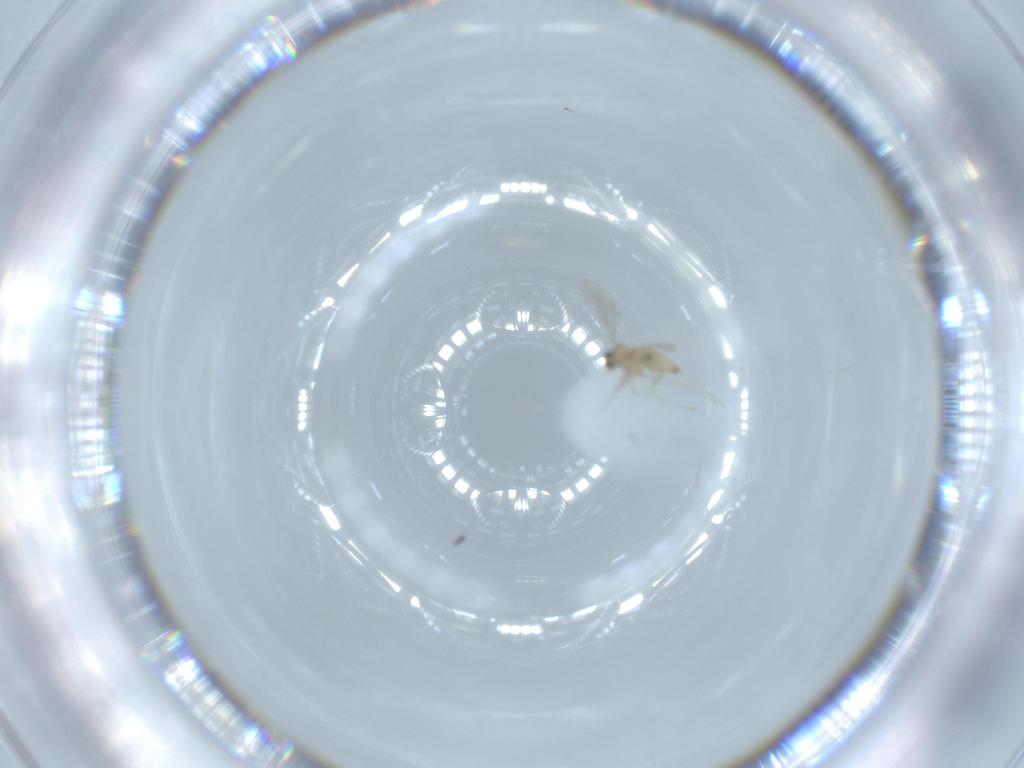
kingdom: Animalia
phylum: Arthropoda
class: Insecta
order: Diptera
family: Cecidomyiidae
